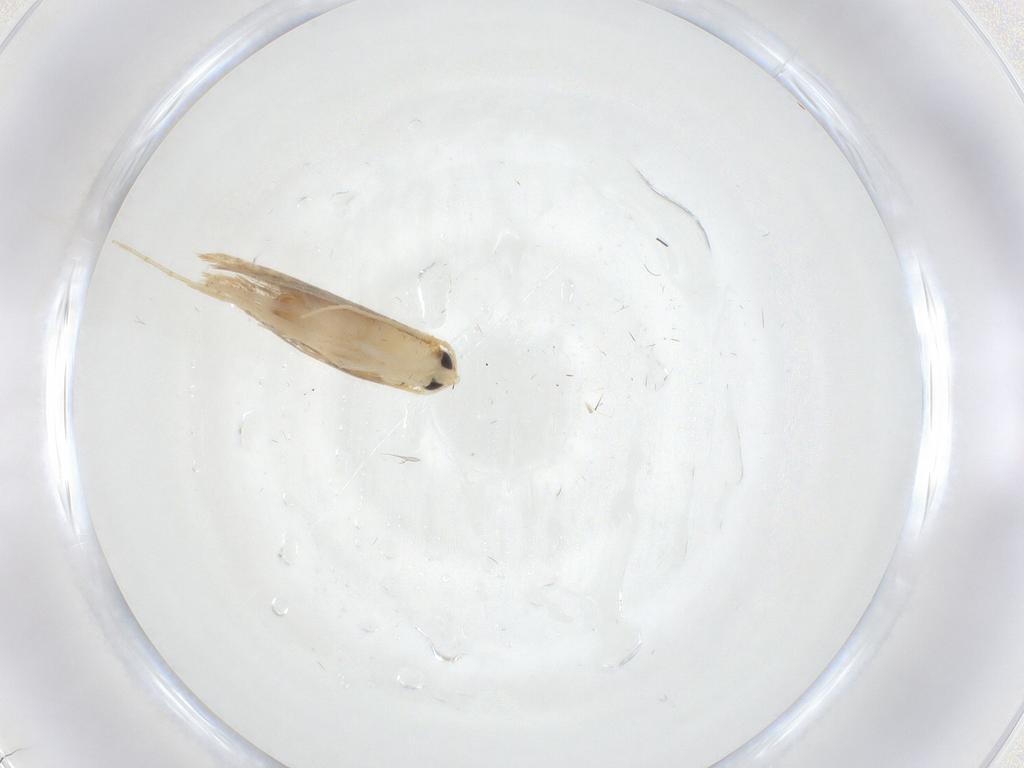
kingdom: Animalia
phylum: Arthropoda
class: Insecta
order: Lepidoptera
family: Tineidae
